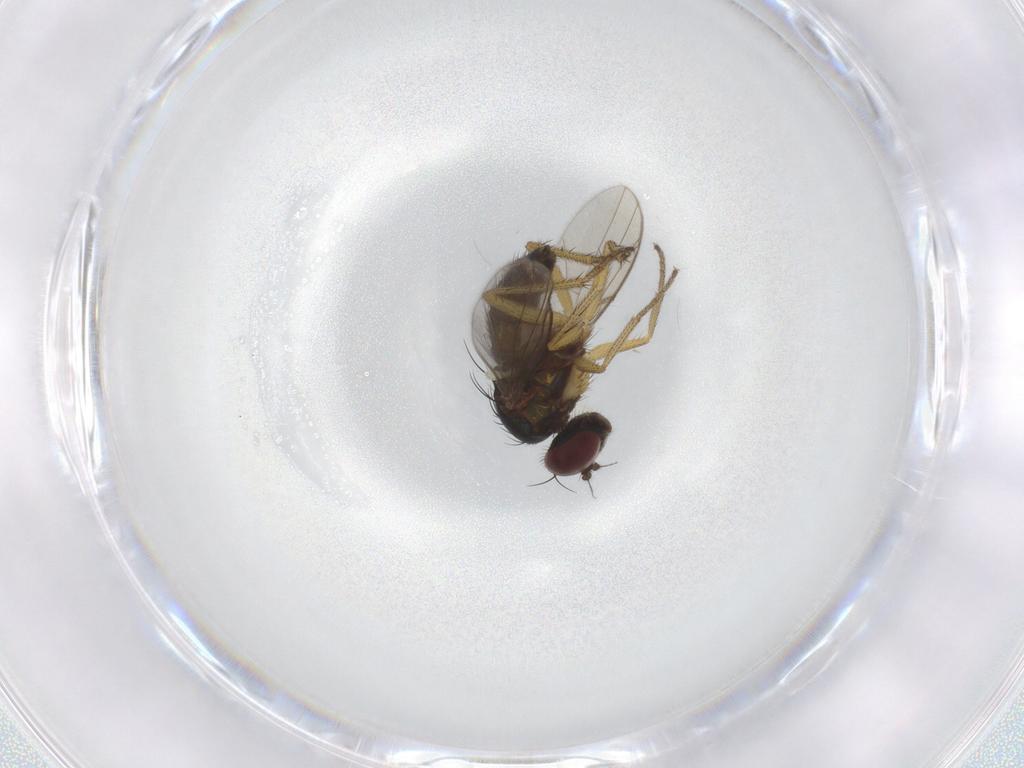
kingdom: Animalia
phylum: Arthropoda
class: Insecta
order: Diptera
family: Dolichopodidae
